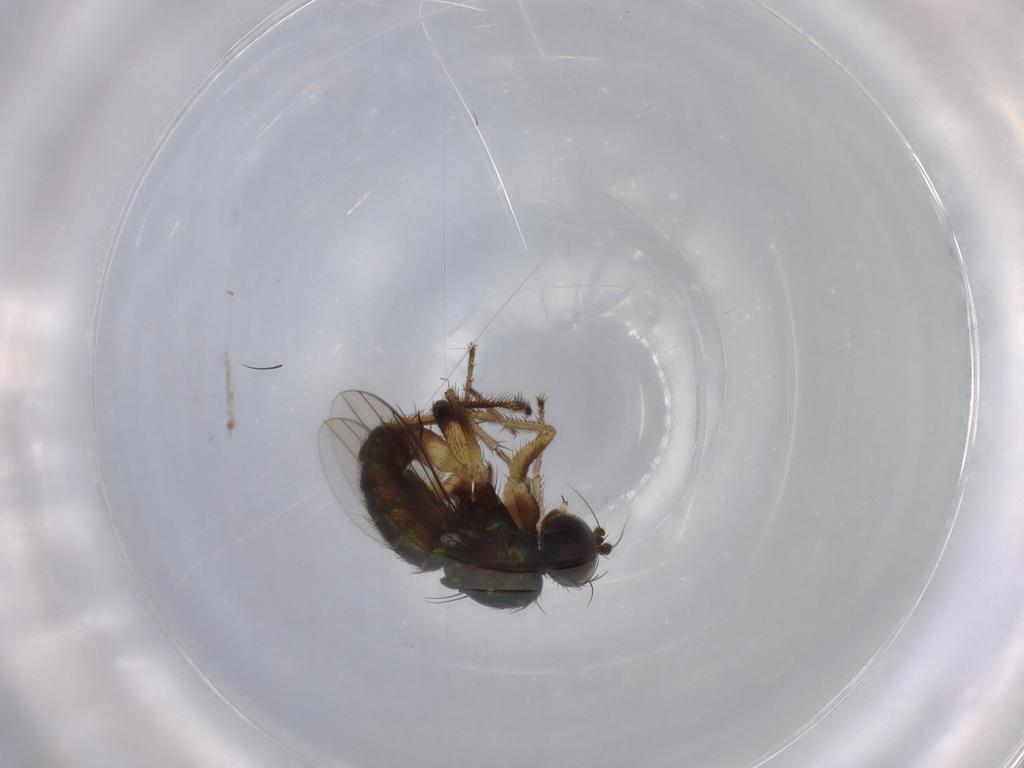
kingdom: Animalia
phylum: Arthropoda
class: Insecta
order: Diptera
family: Dolichopodidae
